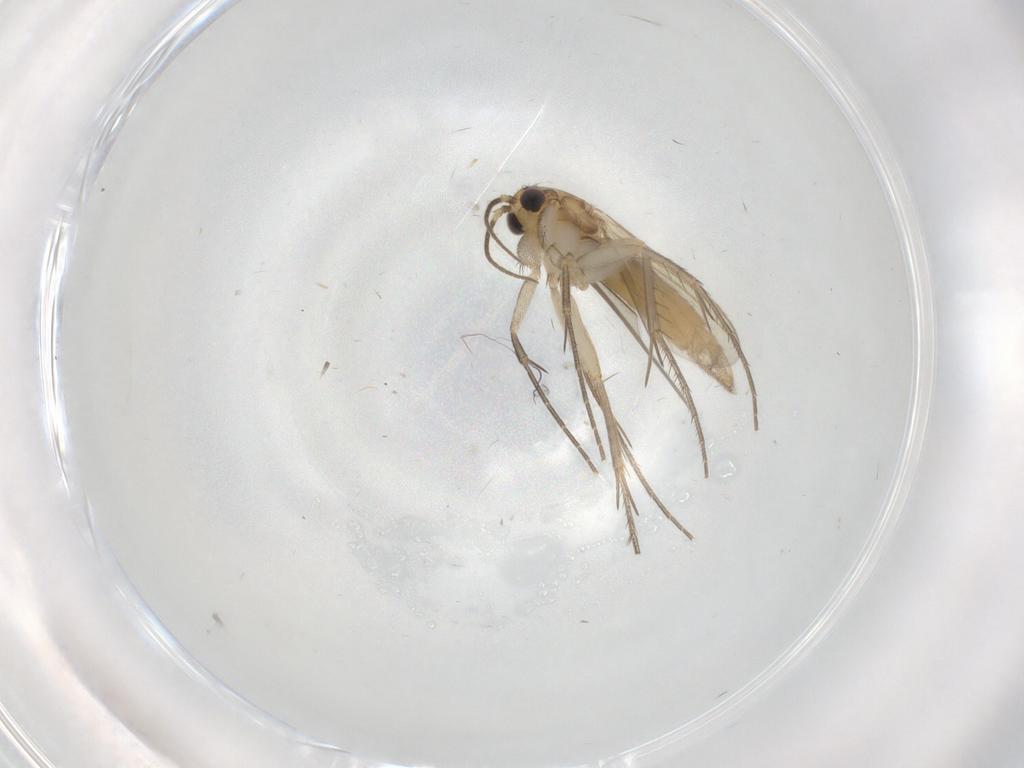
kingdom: Animalia
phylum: Arthropoda
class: Insecta
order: Diptera
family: Mycetophilidae
